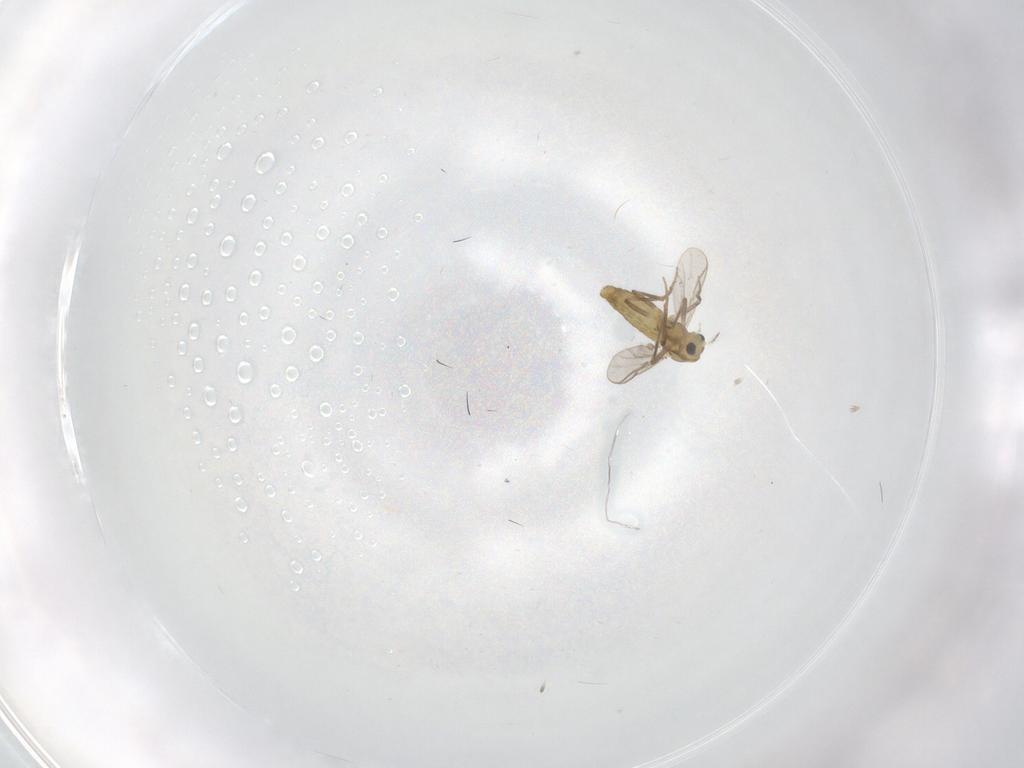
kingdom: Animalia
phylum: Arthropoda
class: Insecta
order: Diptera
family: Chironomidae
